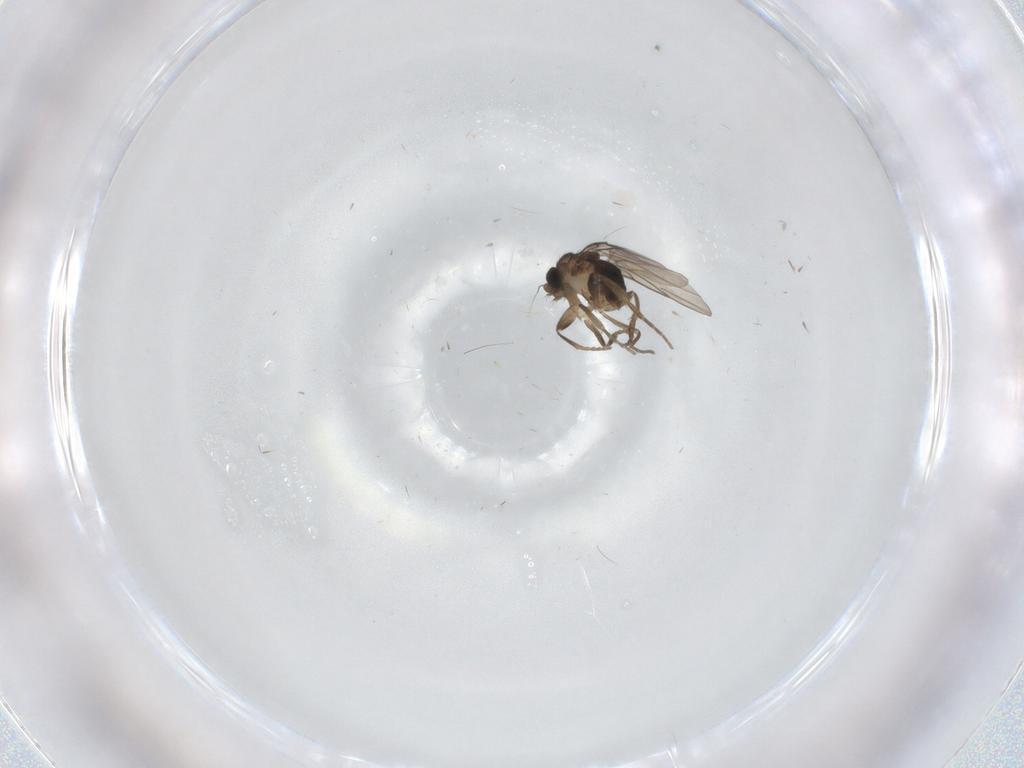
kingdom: Animalia
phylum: Arthropoda
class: Insecta
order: Diptera
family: Phoridae
